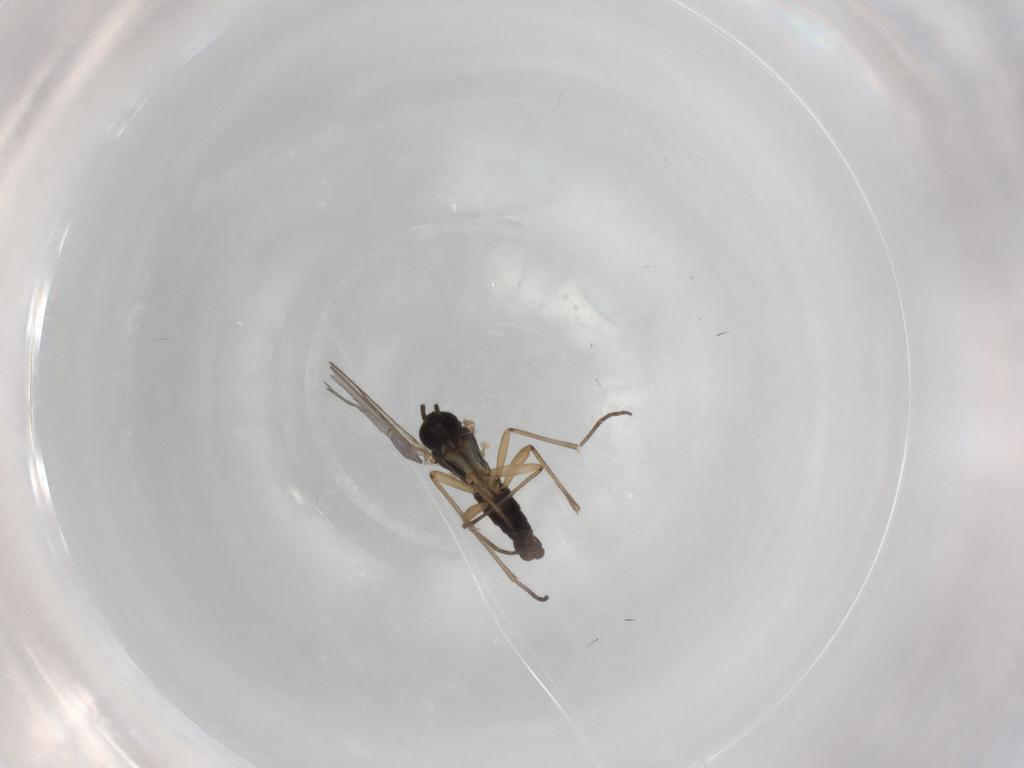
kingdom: Animalia
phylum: Arthropoda
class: Insecta
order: Diptera
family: Sciaridae
